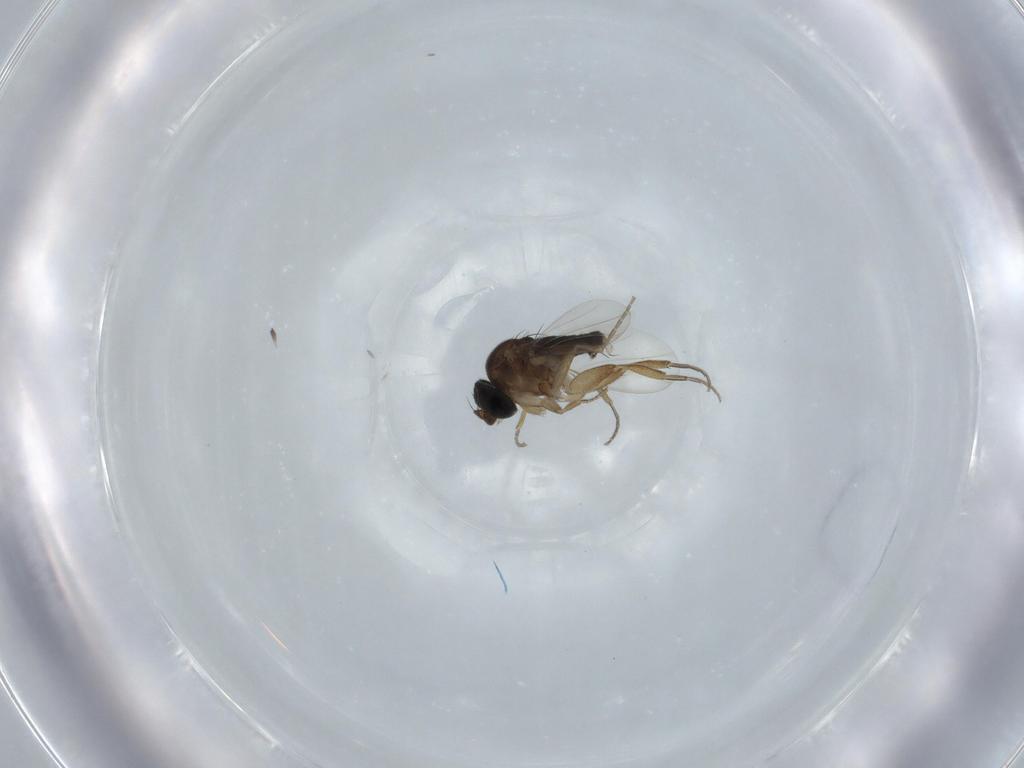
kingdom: Animalia
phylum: Arthropoda
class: Insecta
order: Diptera
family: Phoridae
